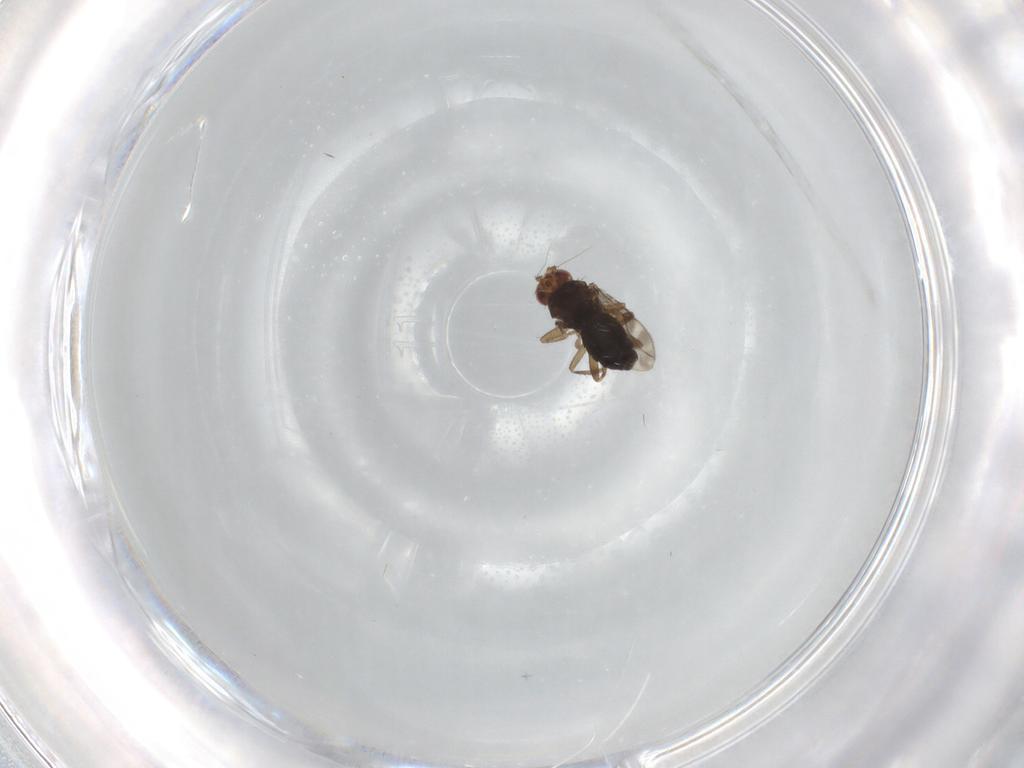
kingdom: Animalia
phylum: Arthropoda
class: Insecta
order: Diptera
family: Sphaeroceridae
